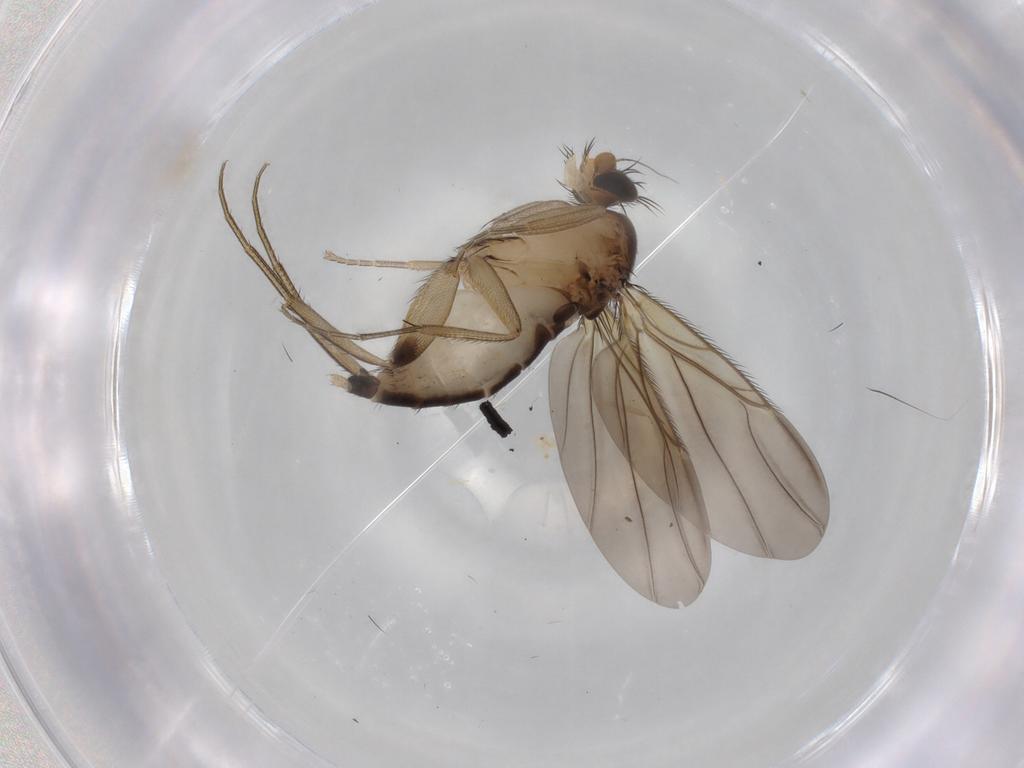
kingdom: Animalia
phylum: Arthropoda
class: Insecta
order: Diptera
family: Phoridae
